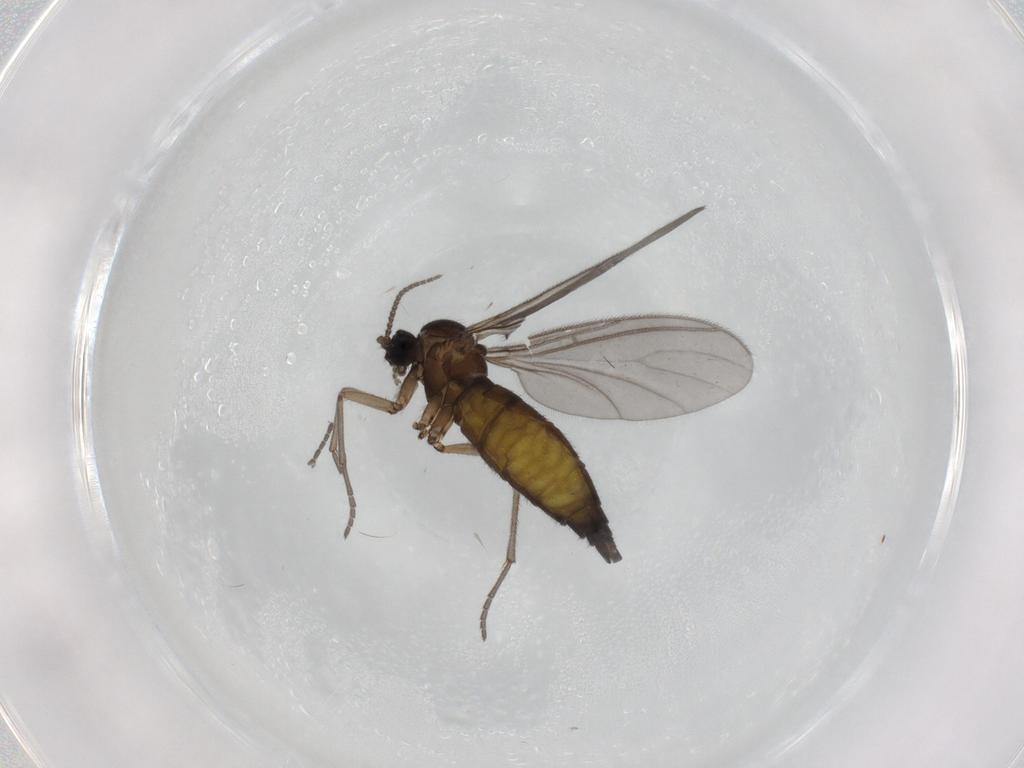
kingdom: Animalia
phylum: Arthropoda
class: Insecta
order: Diptera
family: Sciaridae
